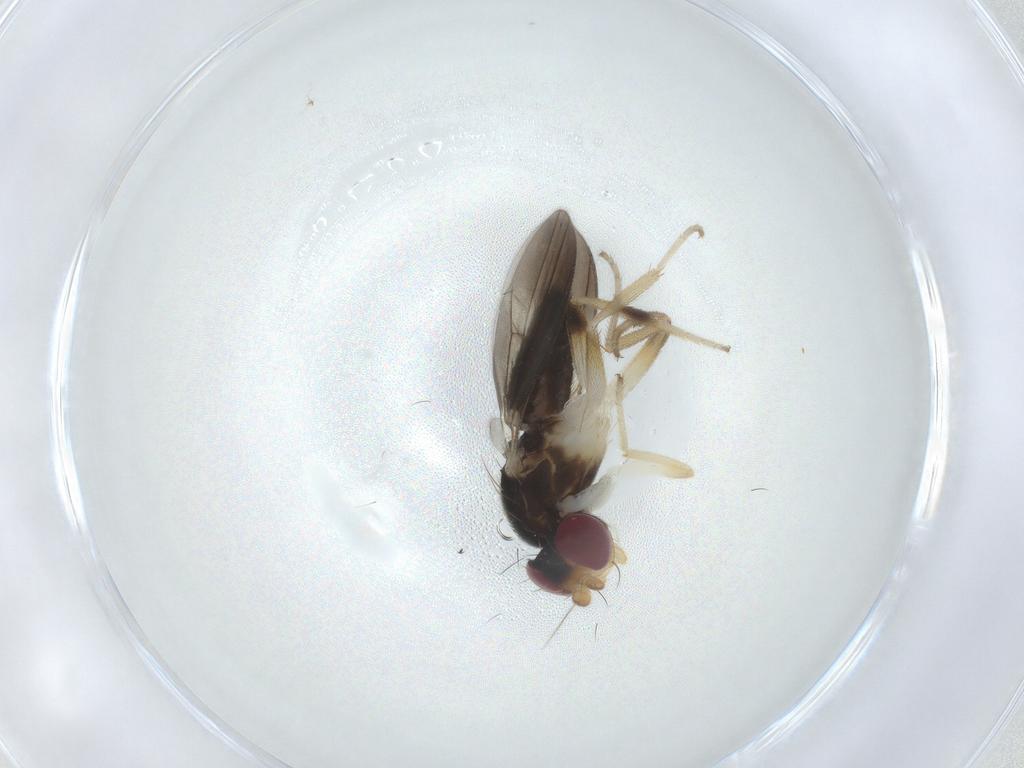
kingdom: Animalia
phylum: Arthropoda
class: Insecta
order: Diptera
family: Clusiidae
